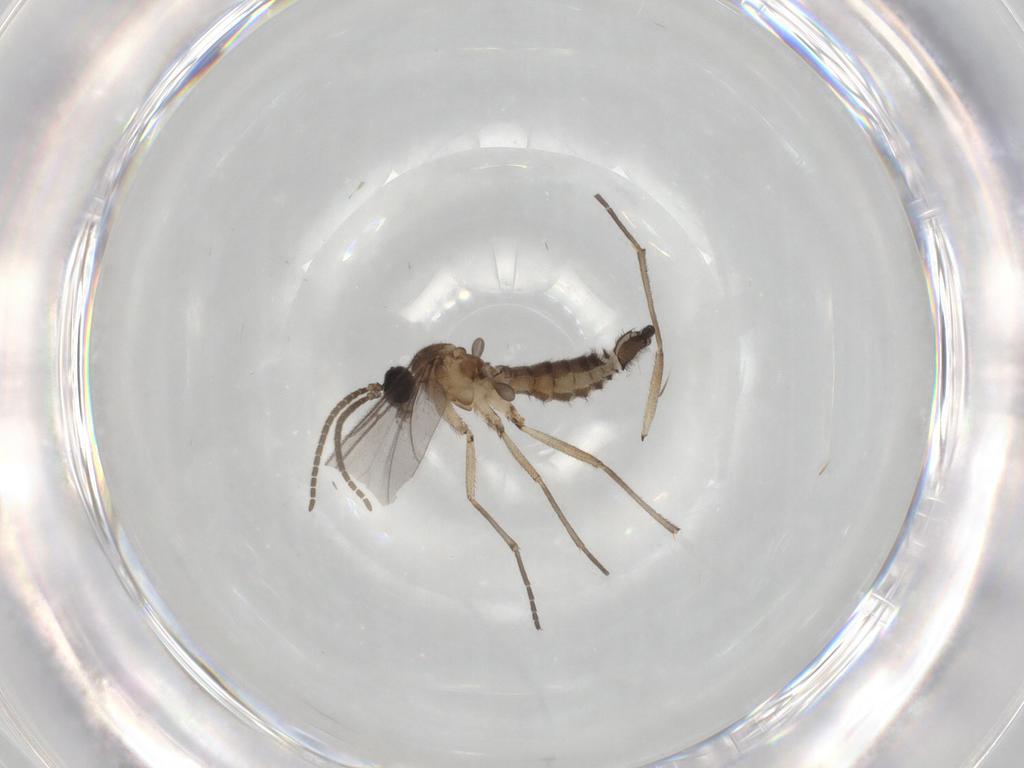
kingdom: Animalia
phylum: Arthropoda
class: Insecta
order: Diptera
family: Sciaridae
